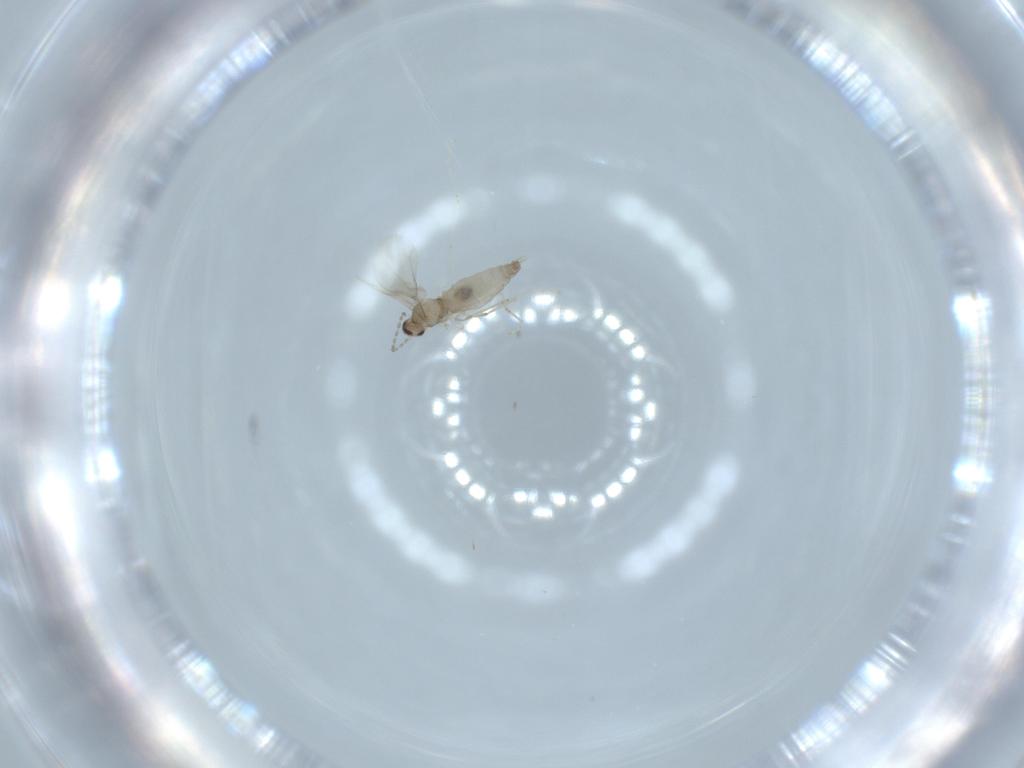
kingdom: Animalia
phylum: Arthropoda
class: Insecta
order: Diptera
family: Cecidomyiidae
